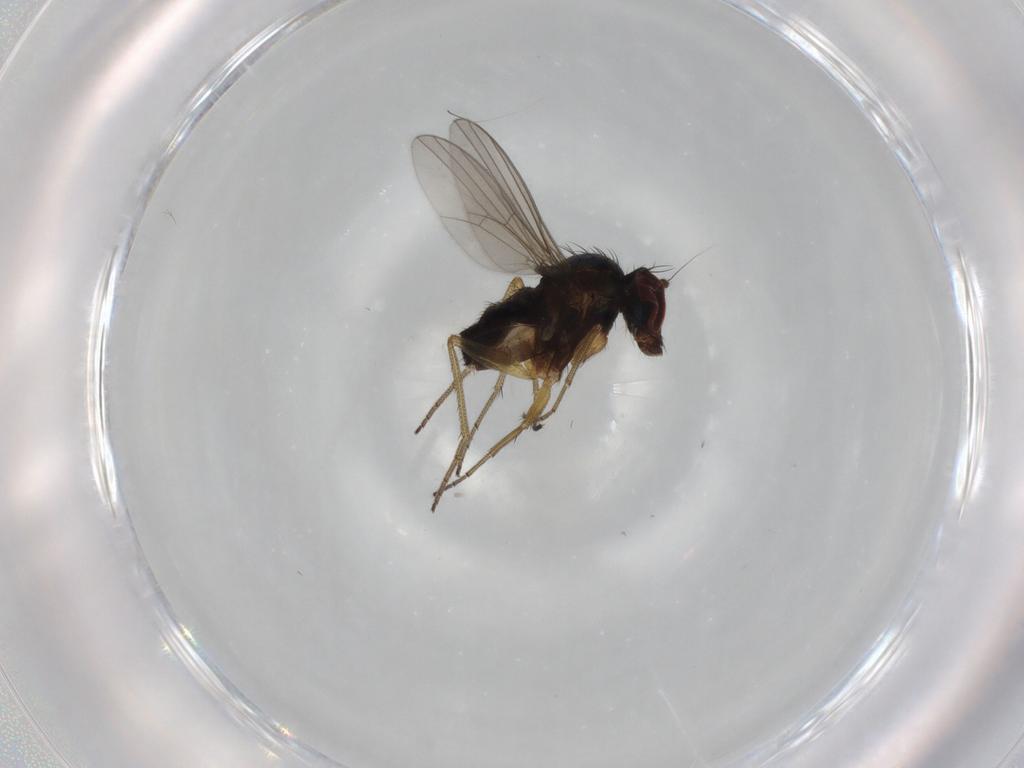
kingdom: Animalia
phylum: Arthropoda
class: Insecta
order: Diptera
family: Dolichopodidae
